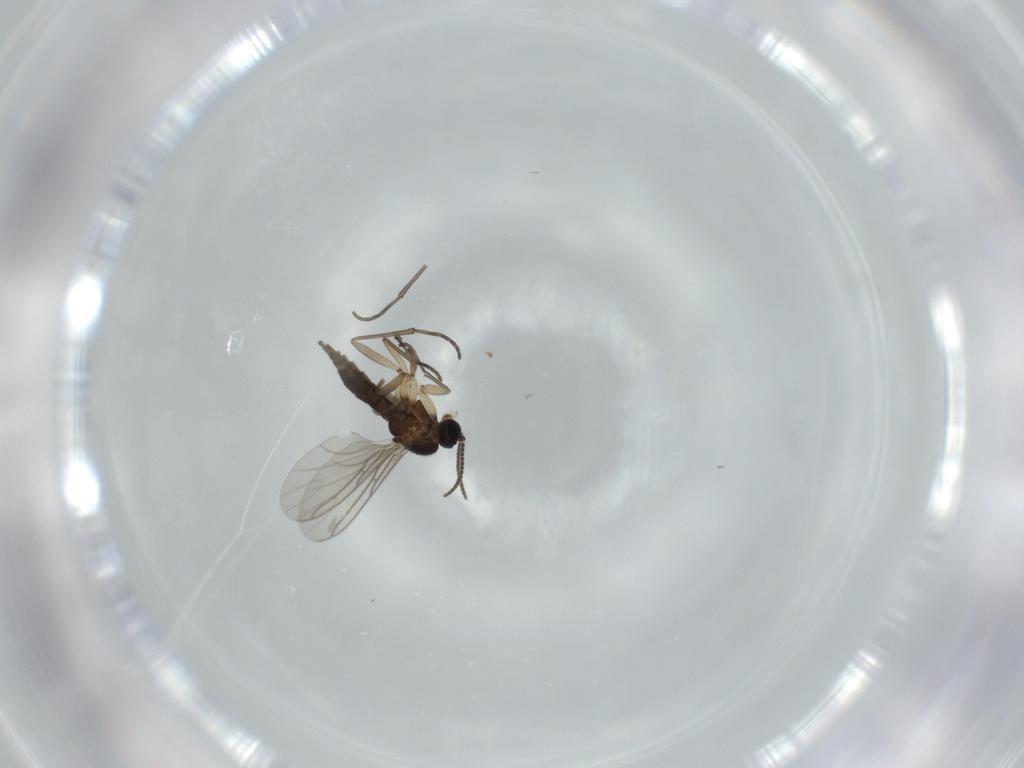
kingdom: Animalia
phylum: Arthropoda
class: Insecta
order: Diptera
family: Sciaridae
